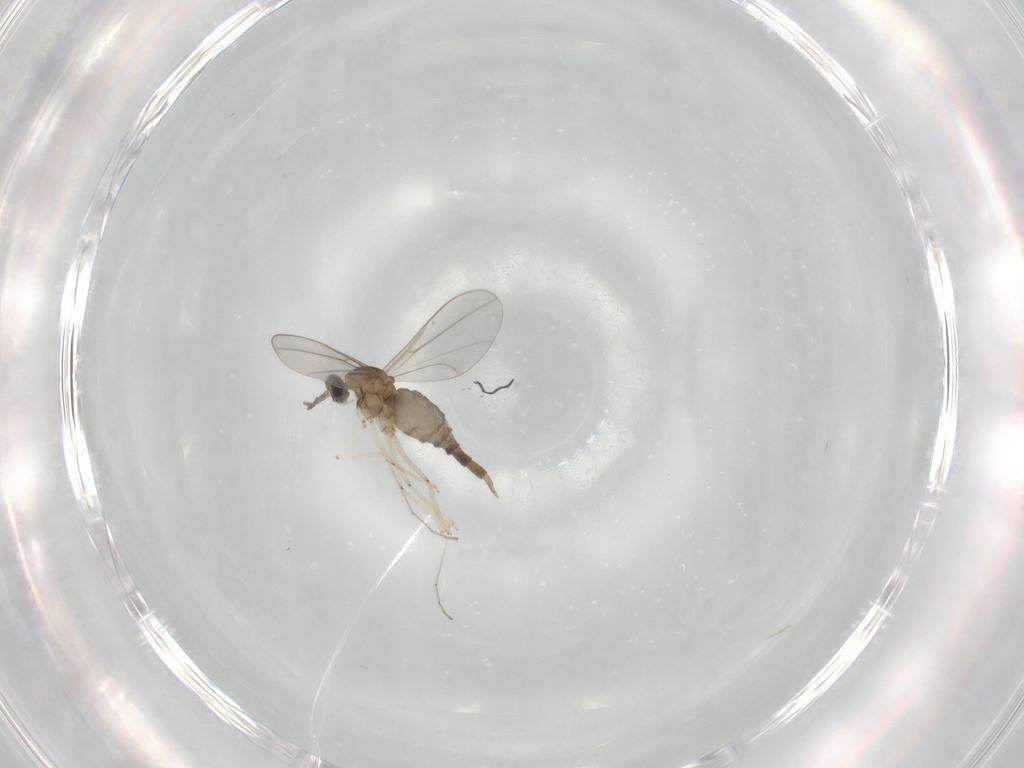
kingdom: Animalia
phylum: Arthropoda
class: Insecta
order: Diptera
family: Cecidomyiidae
